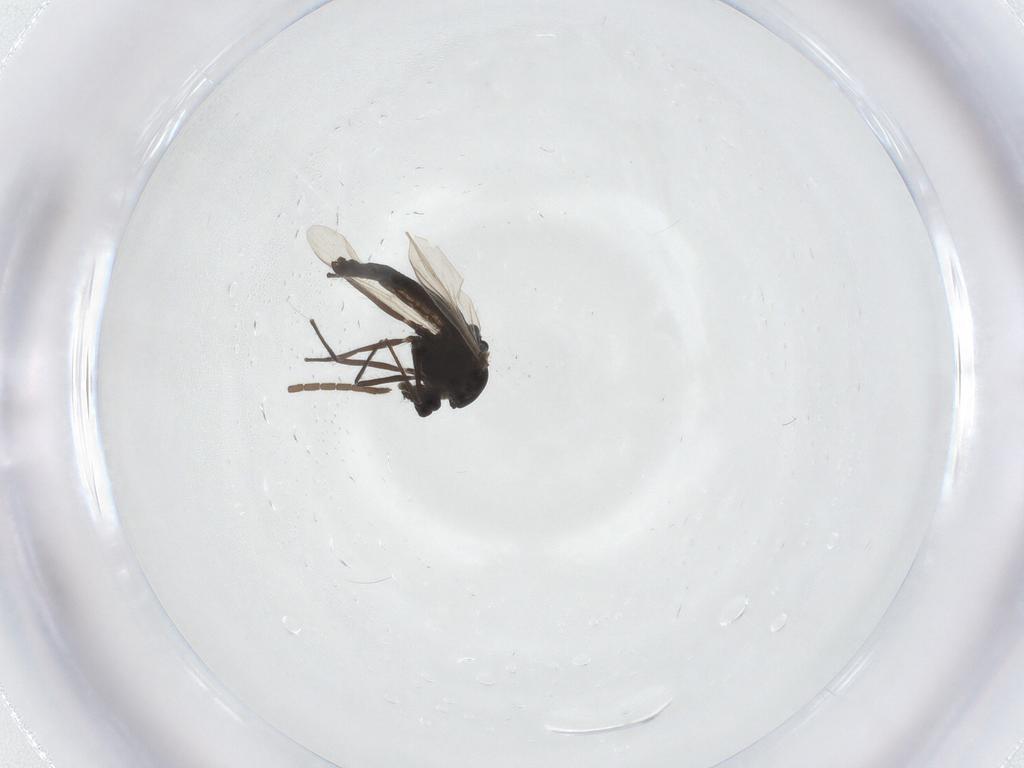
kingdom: Animalia
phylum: Arthropoda
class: Insecta
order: Diptera
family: Mycetophilidae
